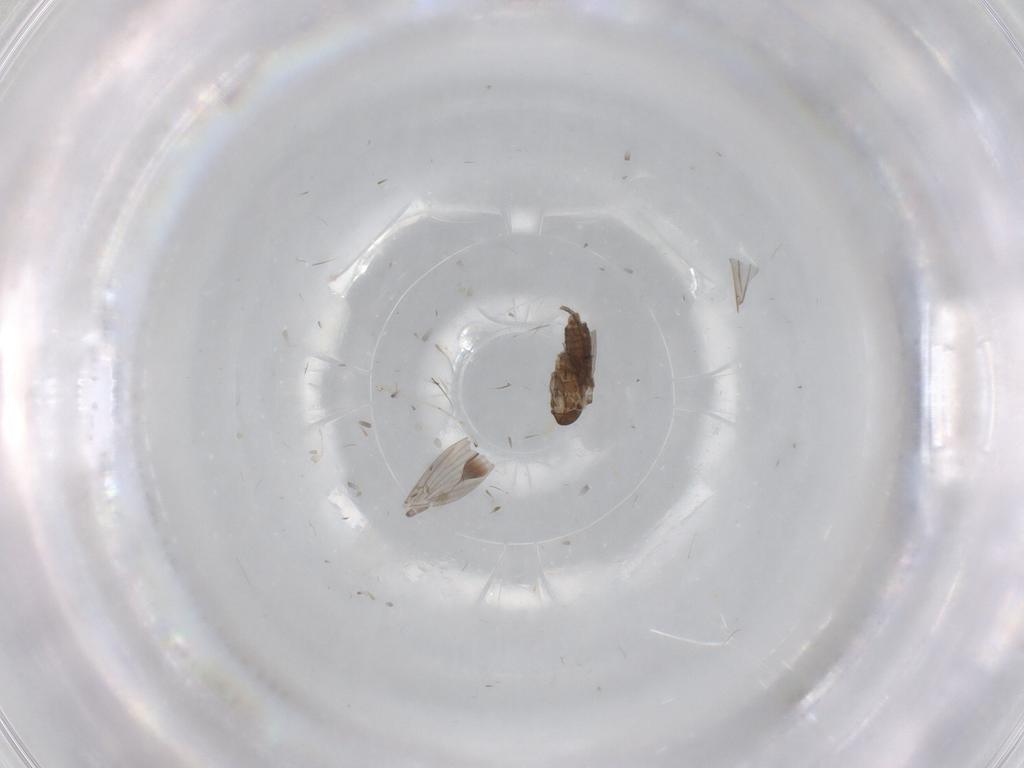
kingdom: Animalia
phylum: Arthropoda
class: Insecta
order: Diptera
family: Cecidomyiidae
